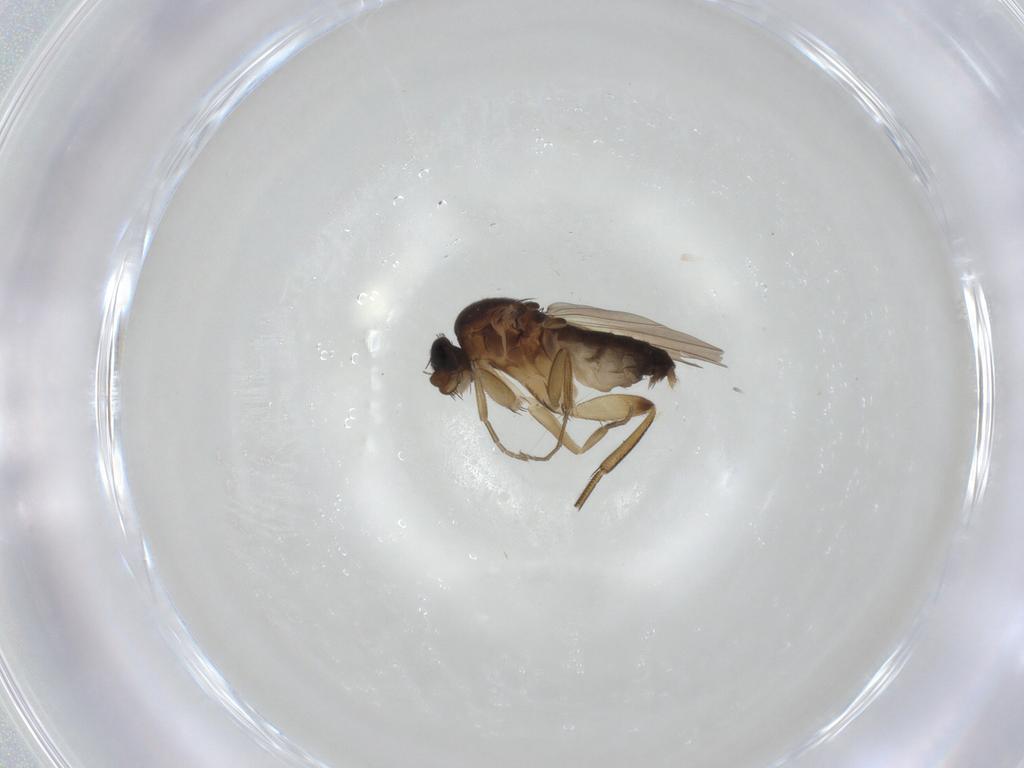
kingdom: Animalia
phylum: Arthropoda
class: Insecta
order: Diptera
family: Phoridae
